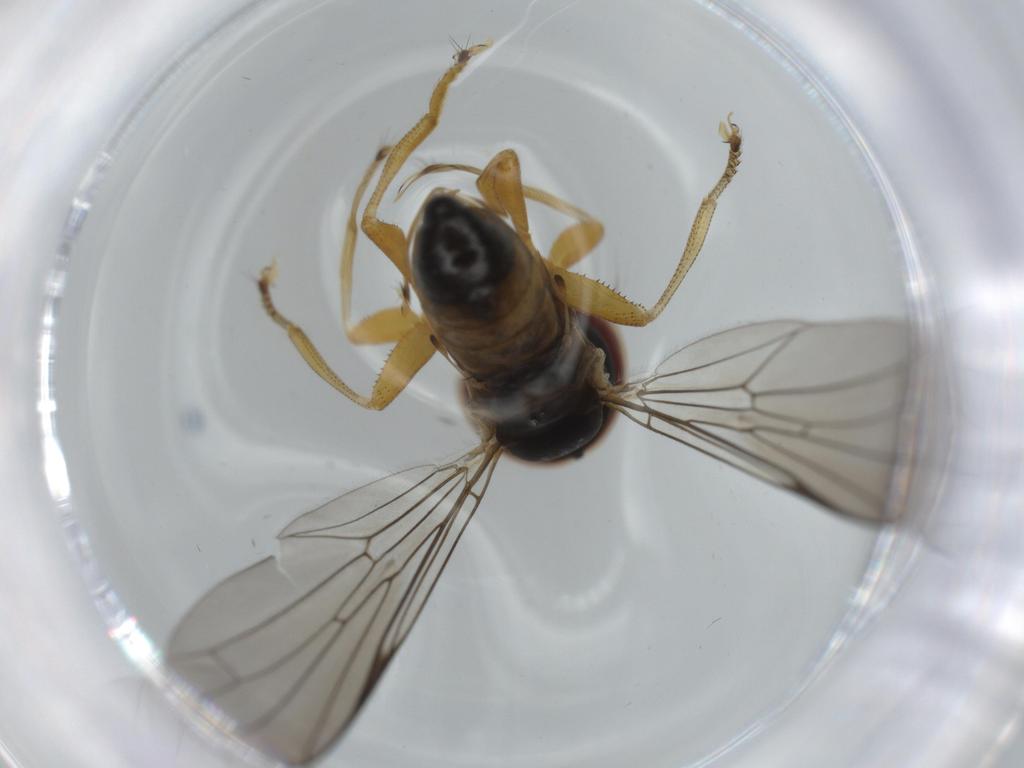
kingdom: Animalia
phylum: Arthropoda
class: Insecta
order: Diptera
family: Pipunculidae
